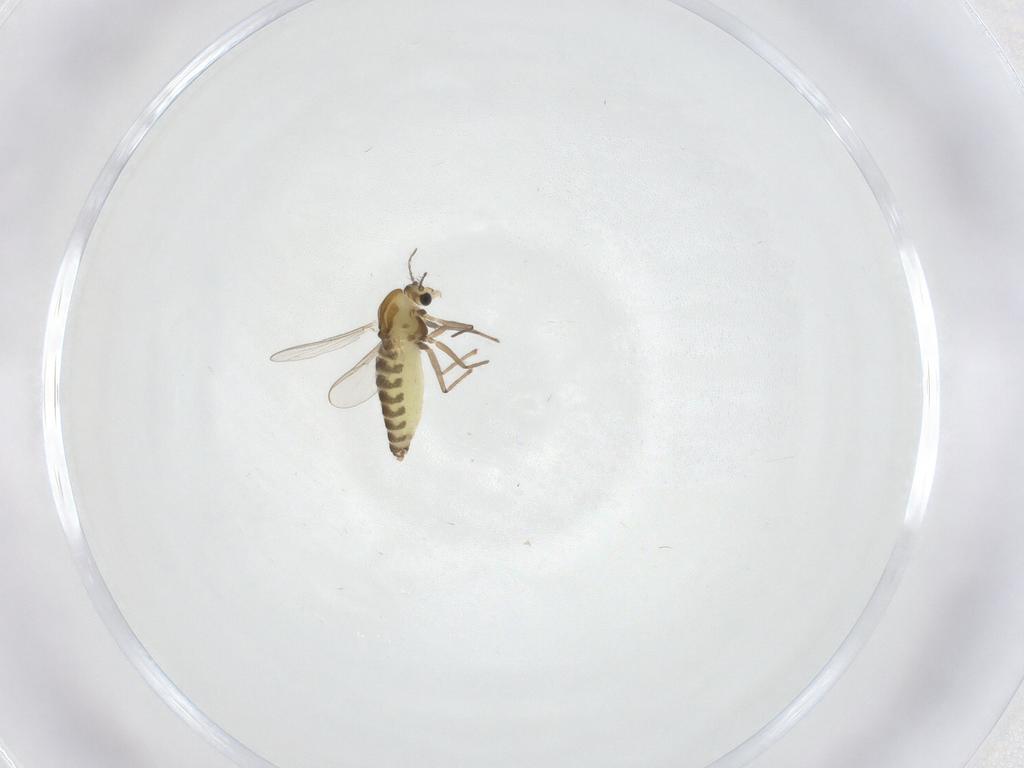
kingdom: Animalia
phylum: Arthropoda
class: Insecta
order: Diptera
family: Chironomidae
